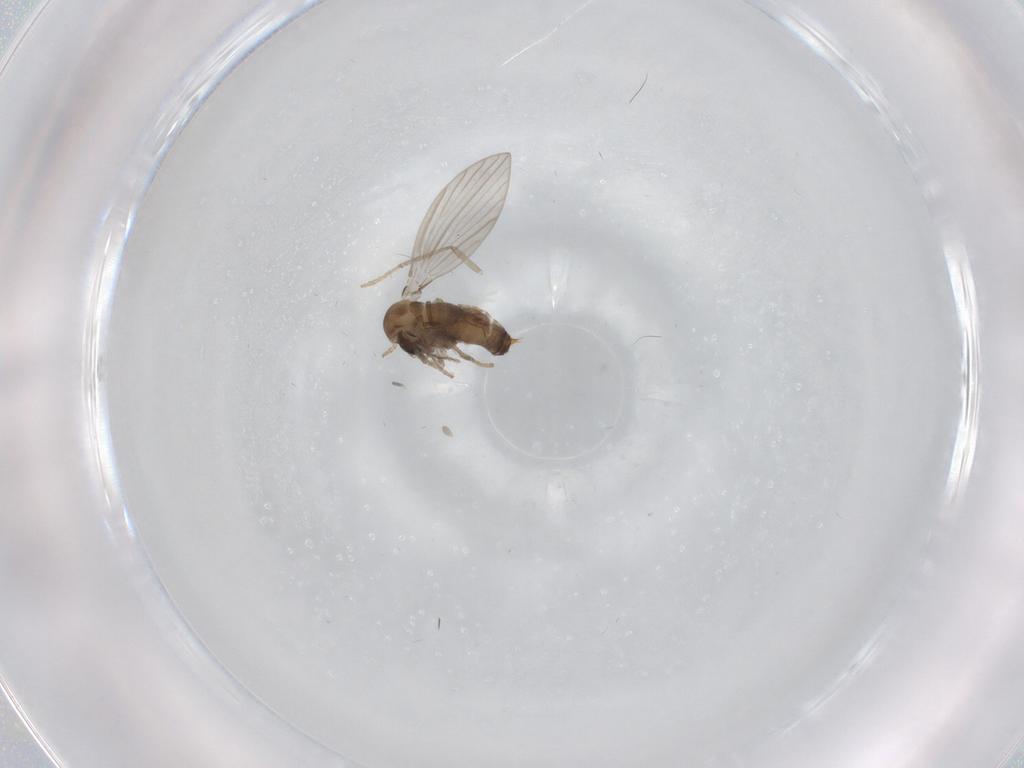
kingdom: Animalia
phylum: Arthropoda
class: Insecta
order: Diptera
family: Psychodidae
